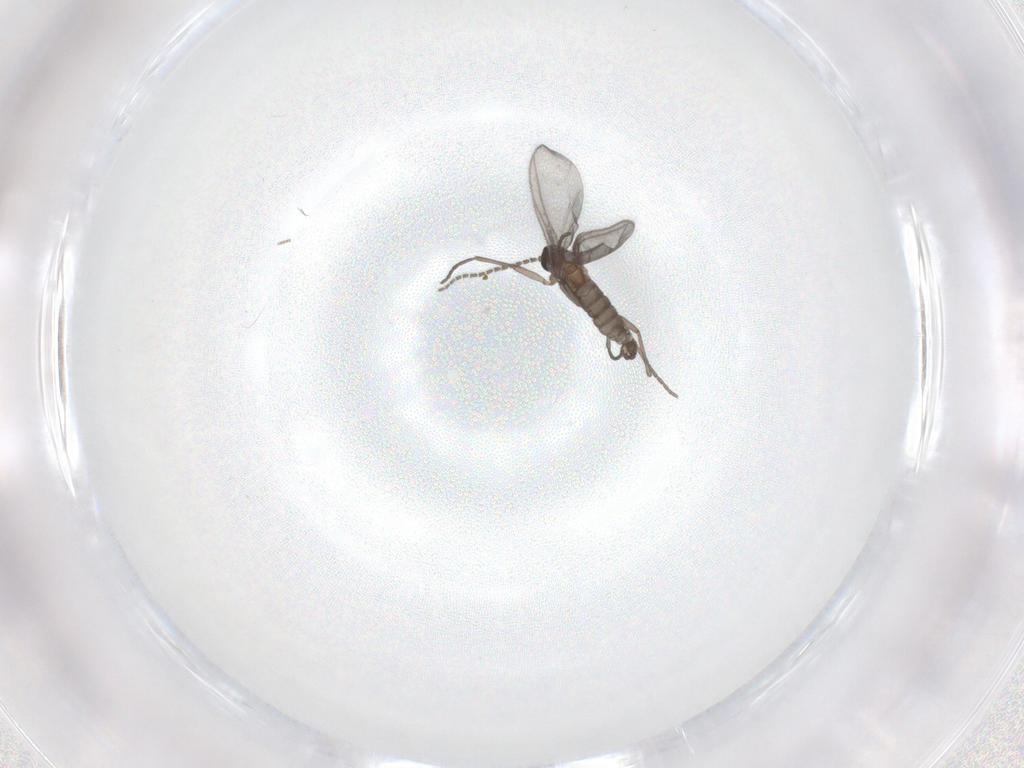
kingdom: Animalia
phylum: Arthropoda
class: Insecta
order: Diptera
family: Sciaridae
